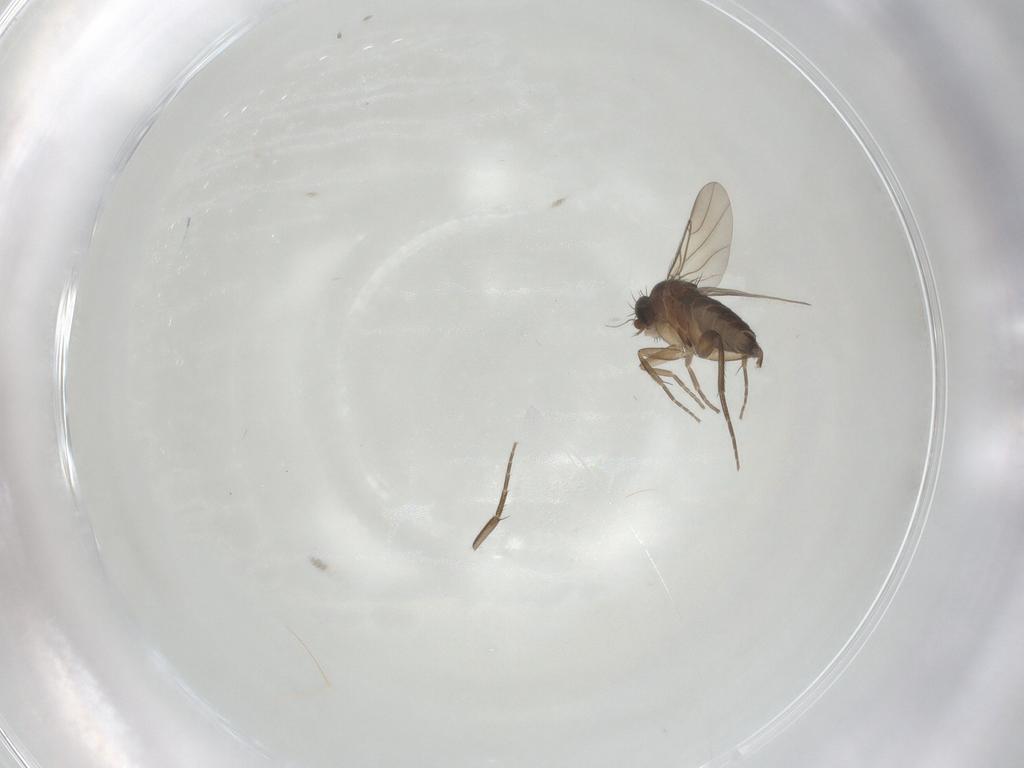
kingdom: Animalia
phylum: Arthropoda
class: Insecta
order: Diptera
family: Phoridae
